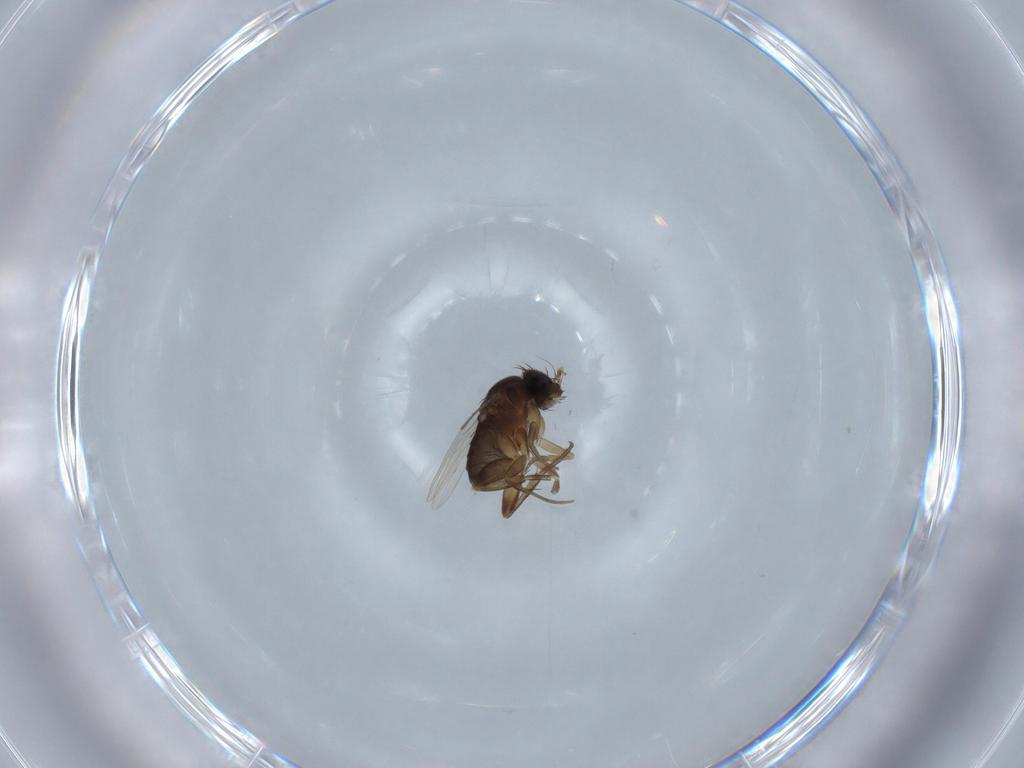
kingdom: Animalia
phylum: Arthropoda
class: Insecta
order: Diptera
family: Phoridae
